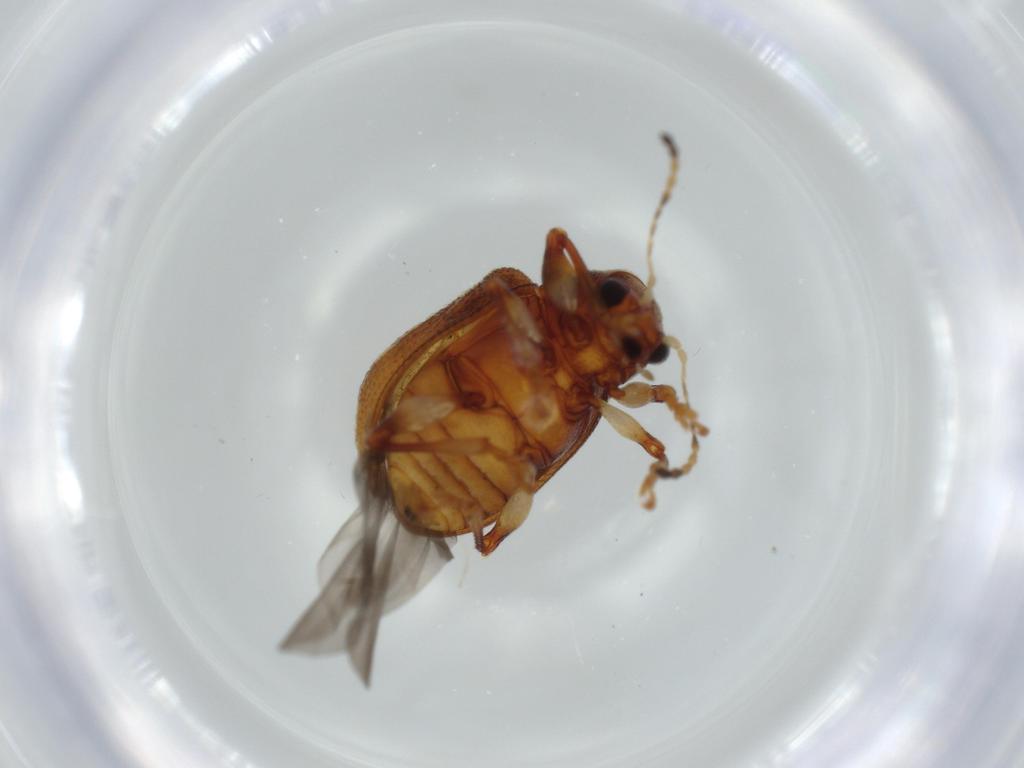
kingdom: Animalia
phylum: Arthropoda
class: Insecta
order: Coleoptera
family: Chrysomelidae
